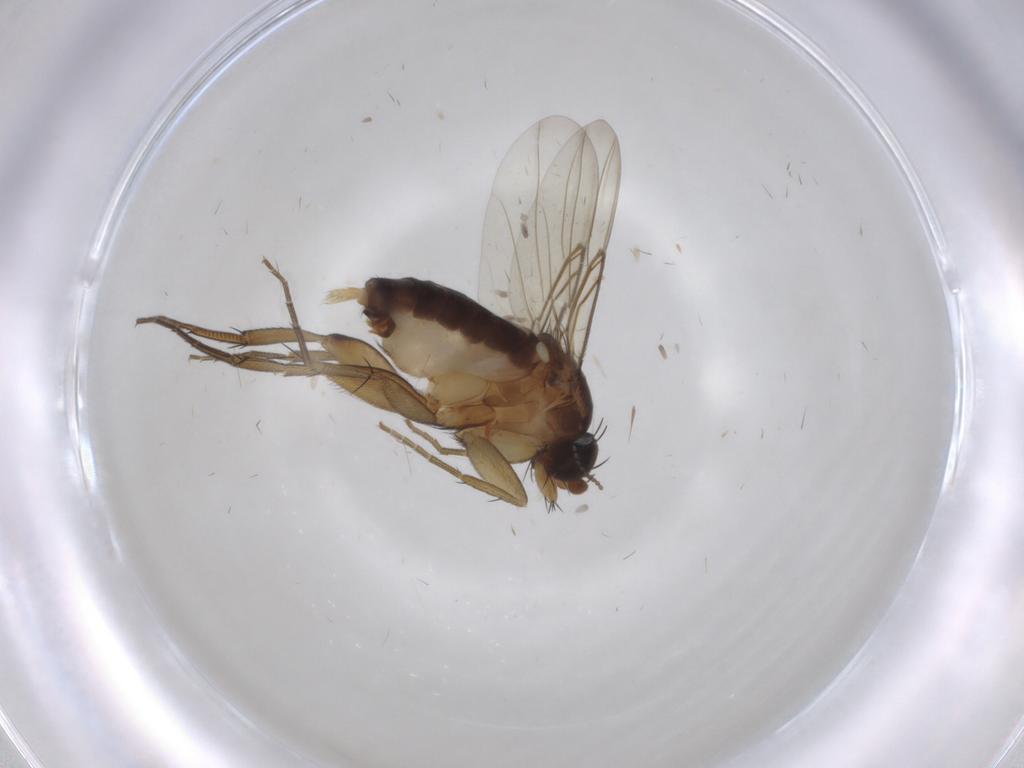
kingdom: Animalia
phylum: Arthropoda
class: Insecta
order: Diptera
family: Phoridae
